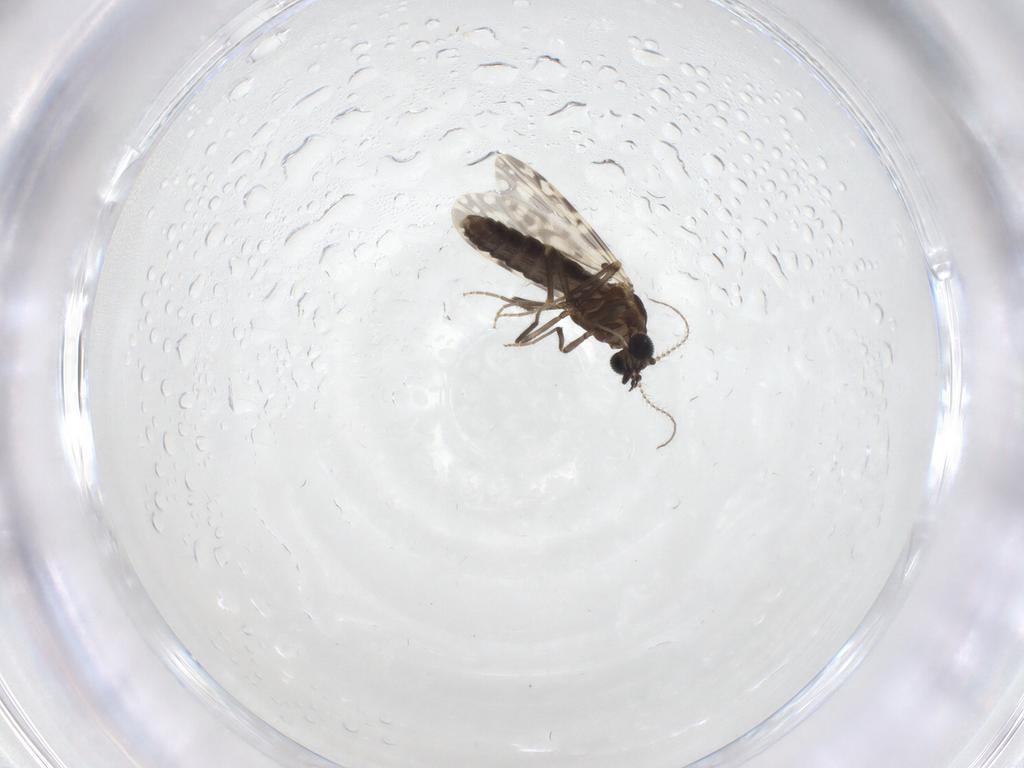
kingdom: Animalia
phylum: Arthropoda
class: Insecta
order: Diptera
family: Ceratopogonidae
